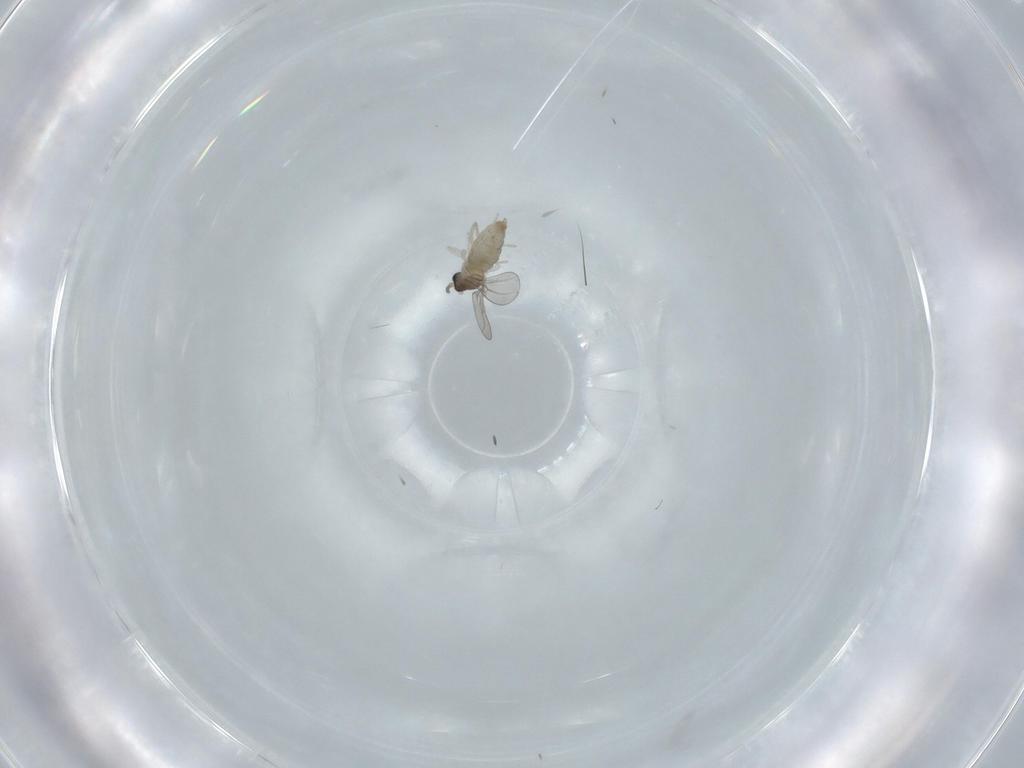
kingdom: Animalia
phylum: Arthropoda
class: Insecta
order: Diptera
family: Cecidomyiidae
